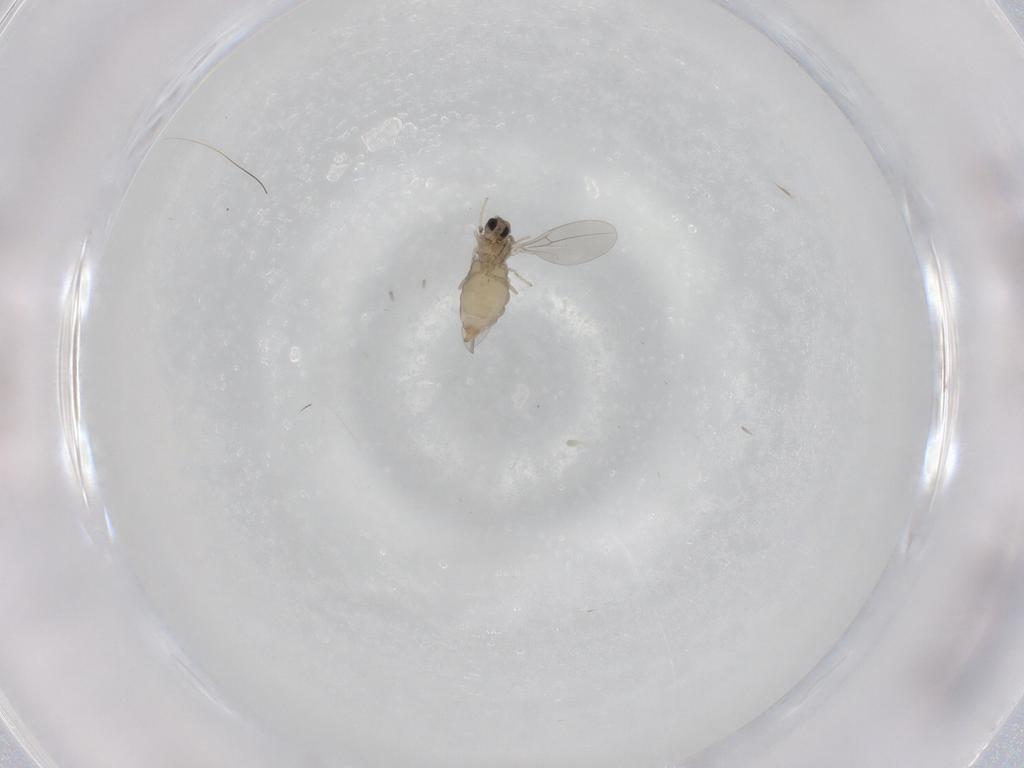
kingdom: Animalia
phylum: Arthropoda
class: Insecta
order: Diptera
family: Cecidomyiidae
